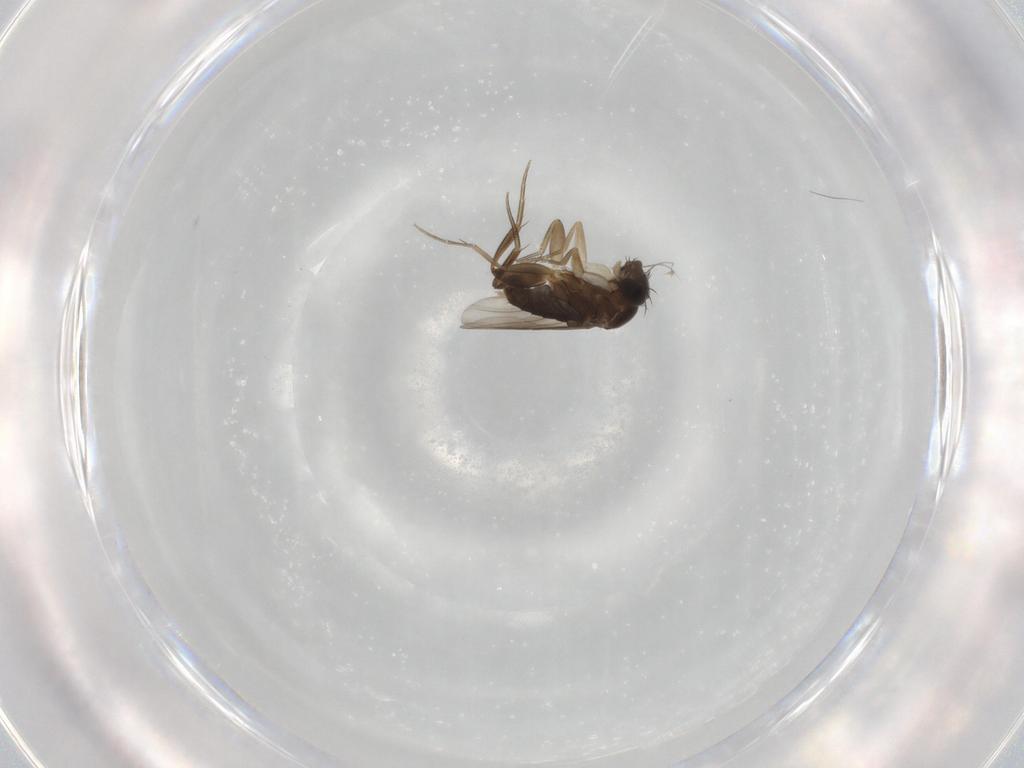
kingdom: Animalia
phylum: Arthropoda
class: Insecta
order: Diptera
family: Phoridae
